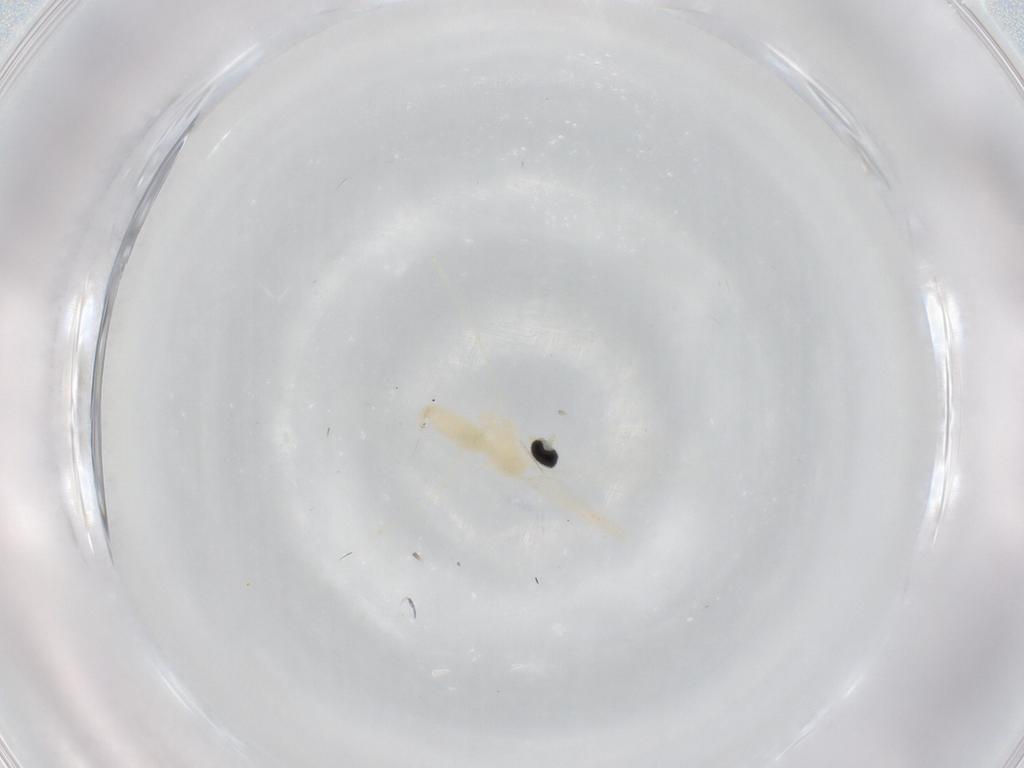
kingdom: Animalia
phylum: Arthropoda
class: Insecta
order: Diptera
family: Cecidomyiidae
